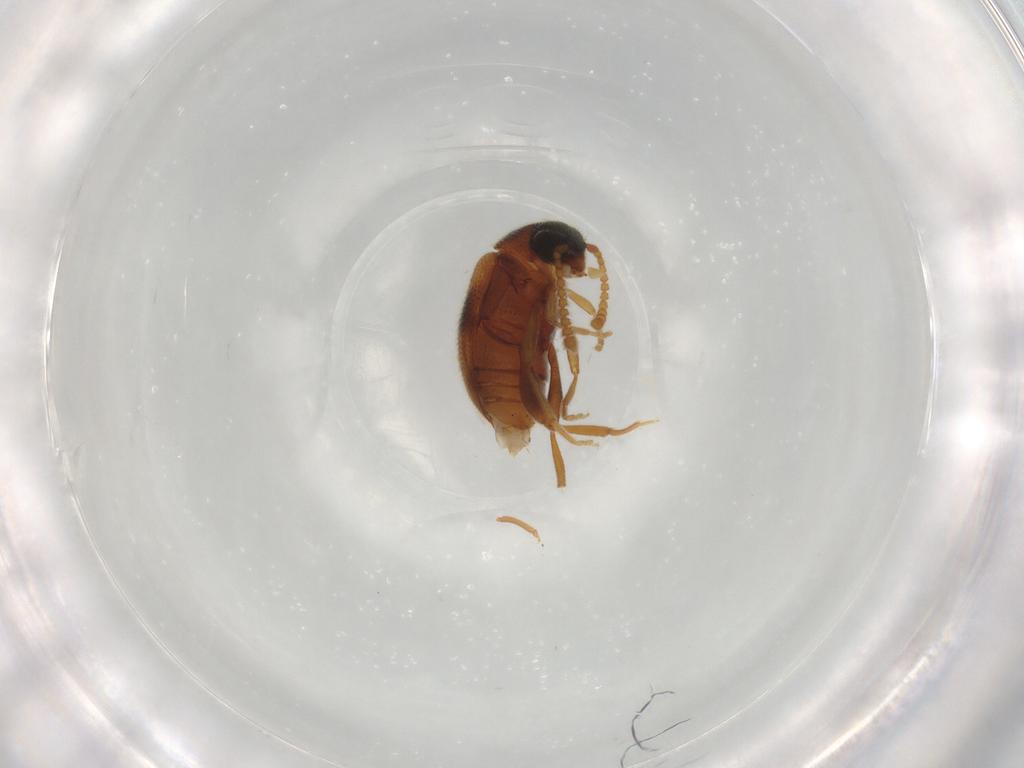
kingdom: Animalia
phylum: Arthropoda
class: Insecta
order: Coleoptera
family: Aderidae
